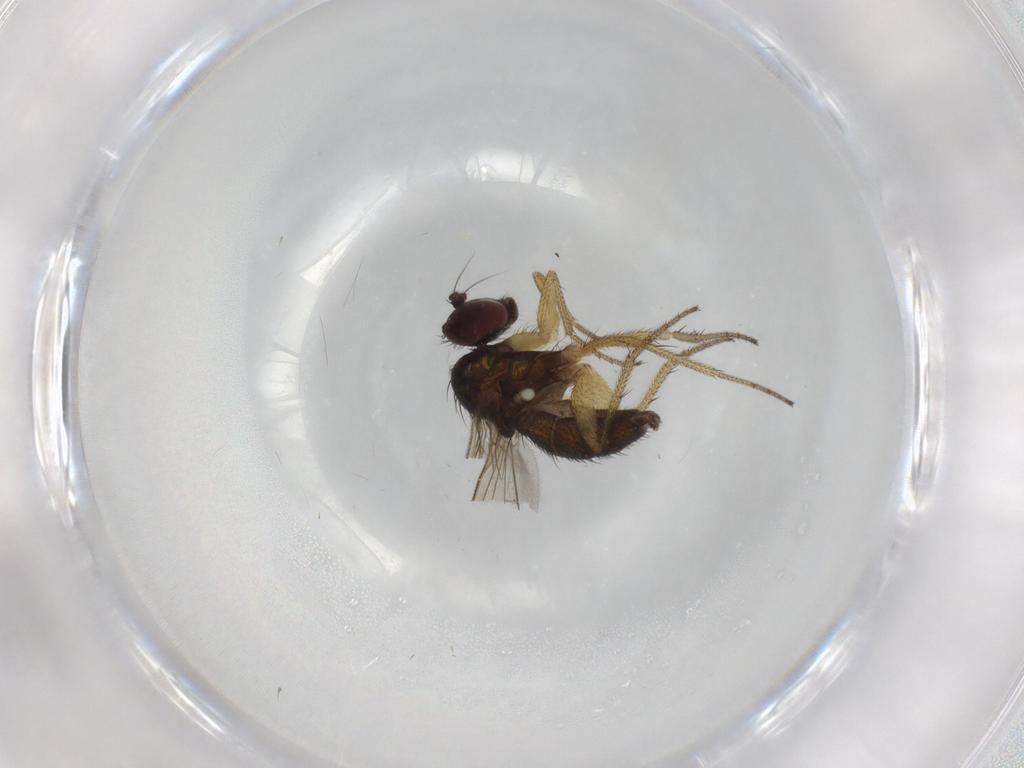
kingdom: Animalia
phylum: Arthropoda
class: Insecta
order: Diptera
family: Dolichopodidae
